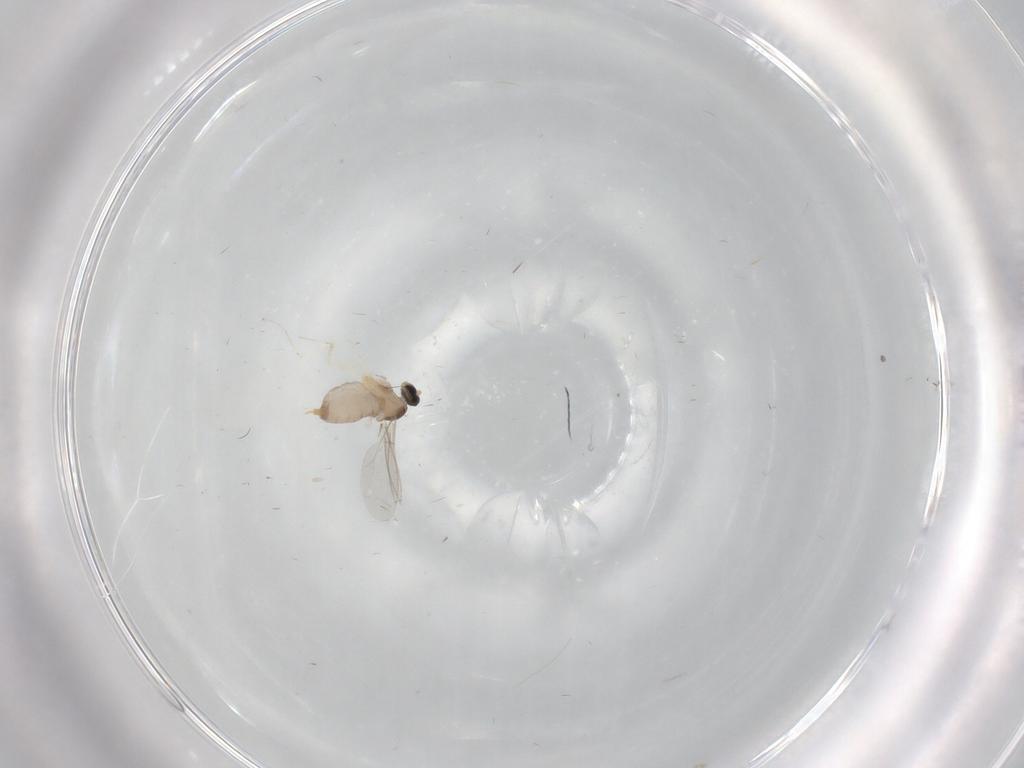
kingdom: Animalia
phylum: Arthropoda
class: Insecta
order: Diptera
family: Cecidomyiidae
